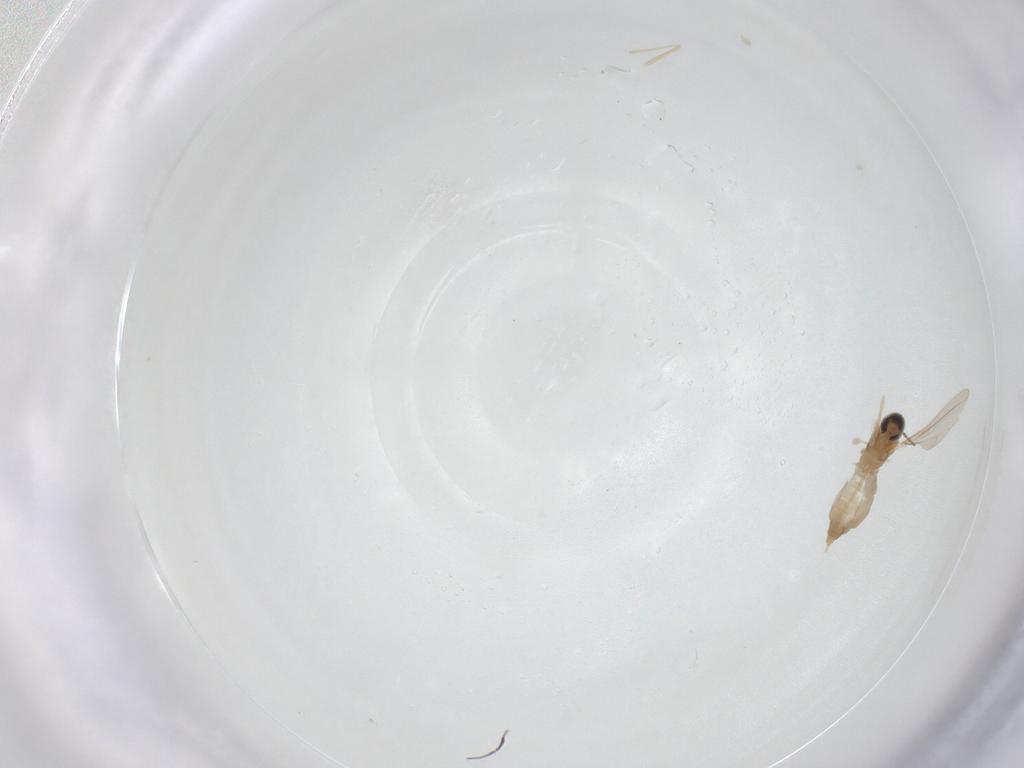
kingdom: Animalia
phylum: Arthropoda
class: Insecta
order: Diptera
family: Cecidomyiidae
